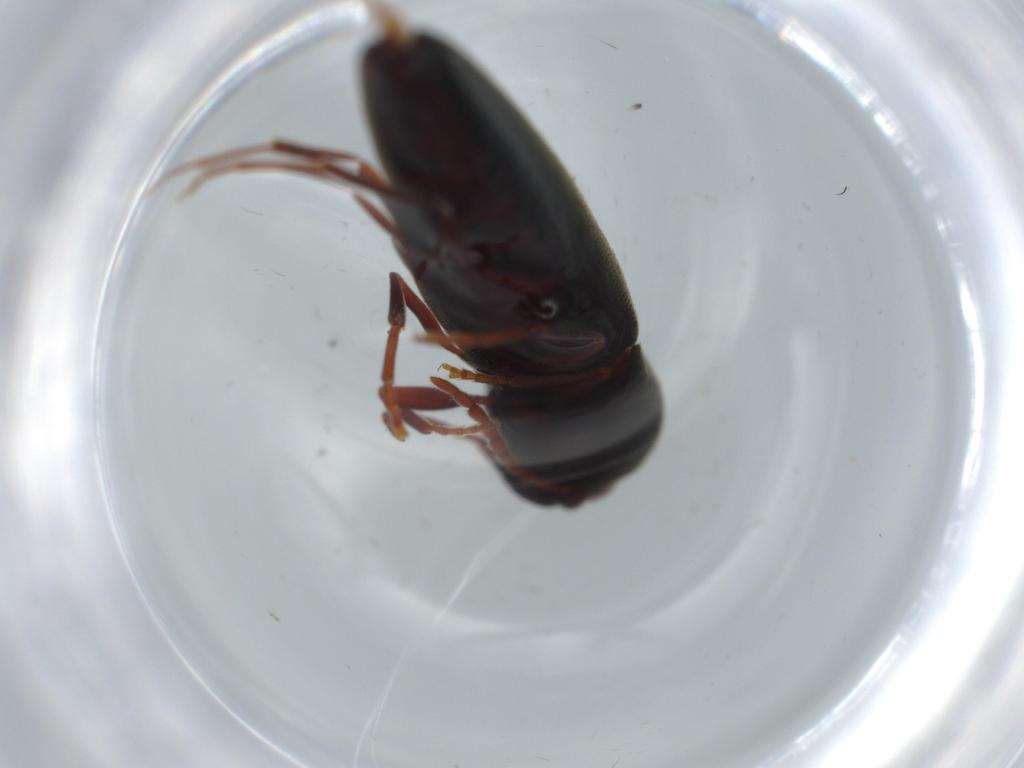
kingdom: Animalia
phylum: Arthropoda
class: Insecta
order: Coleoptera
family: Eucnemidae
